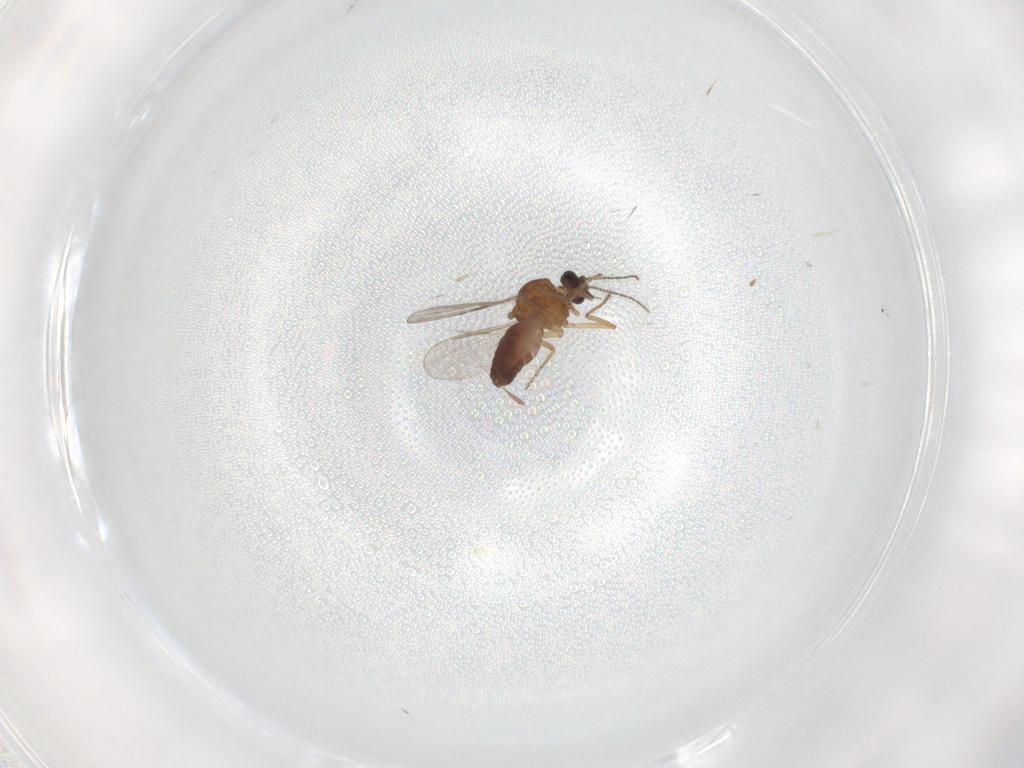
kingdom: Animalia
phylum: Arthropoda
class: Insecta
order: Diptera
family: Ceratopogonidae
